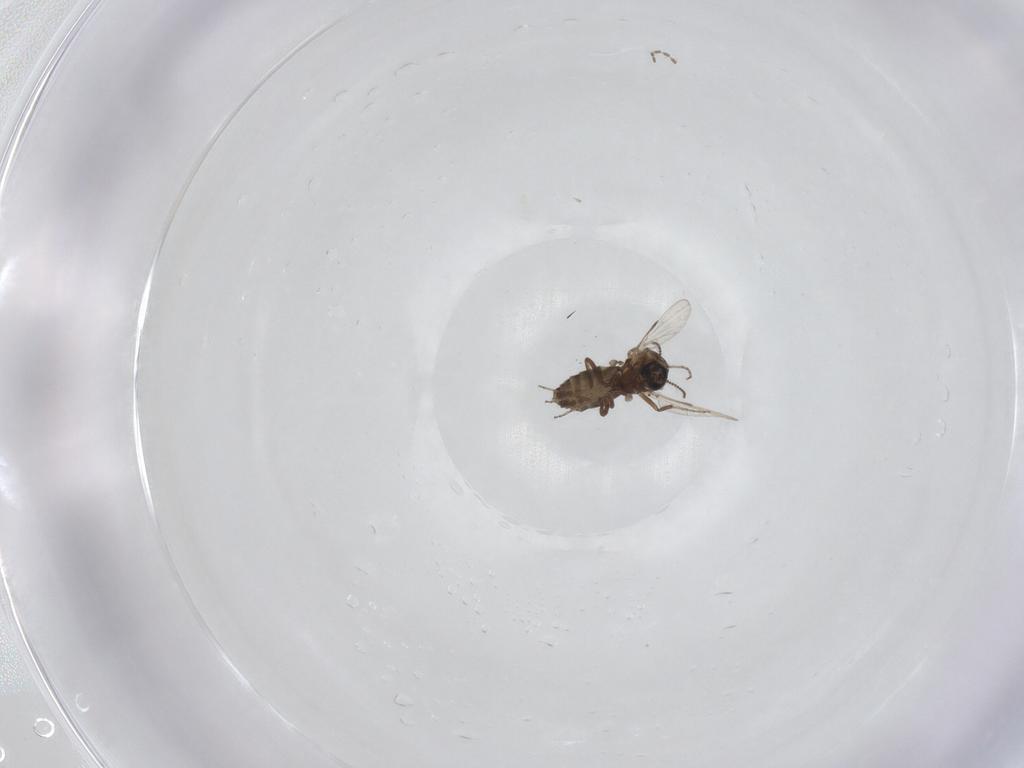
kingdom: Animalia
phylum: Arthropoda
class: Insecta
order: Diptera
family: Ceratopogonidae
